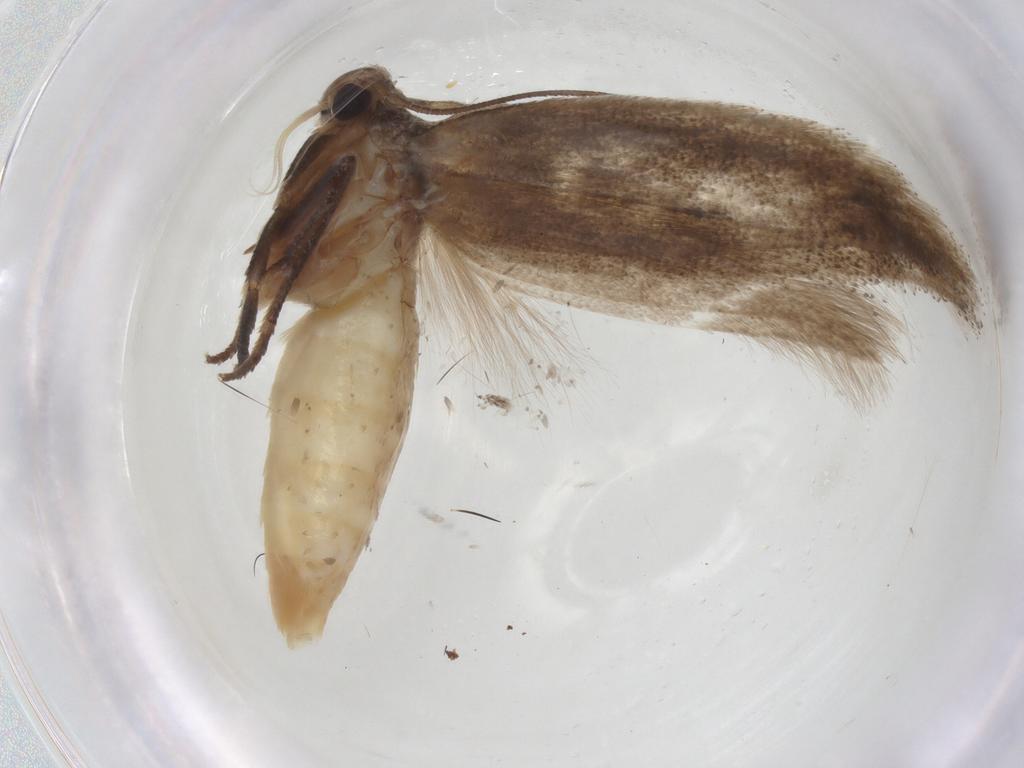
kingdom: Animalia
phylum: Arthropoda
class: Insecta
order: Lepidoptera
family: Elachistidae
